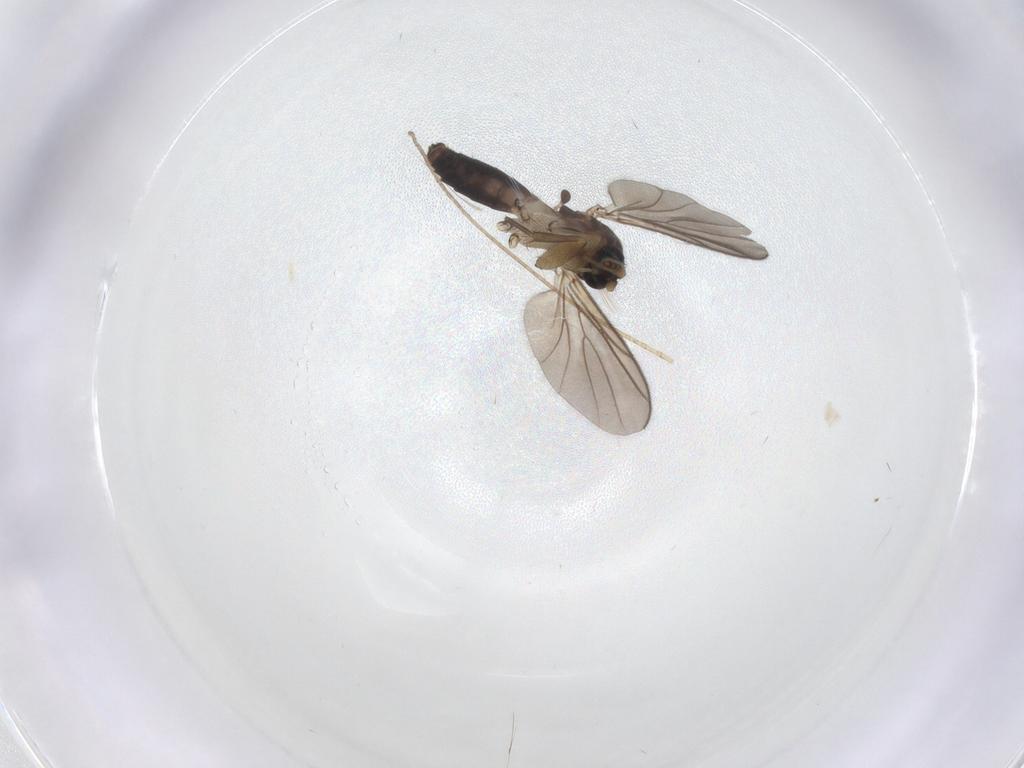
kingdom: Animalia
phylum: Arthropoda
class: Insecta
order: Diptera
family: Mycetophilidae
